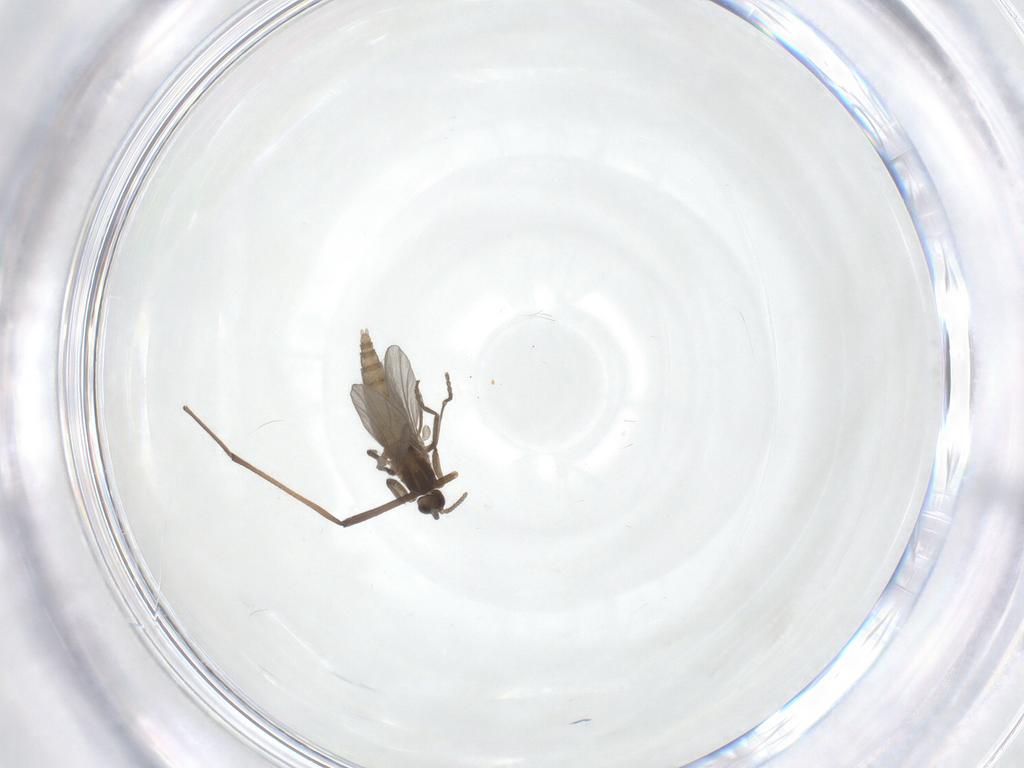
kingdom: Animalia
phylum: Arthropoda
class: Insecta
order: Diptera
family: Cecidomyiidae
